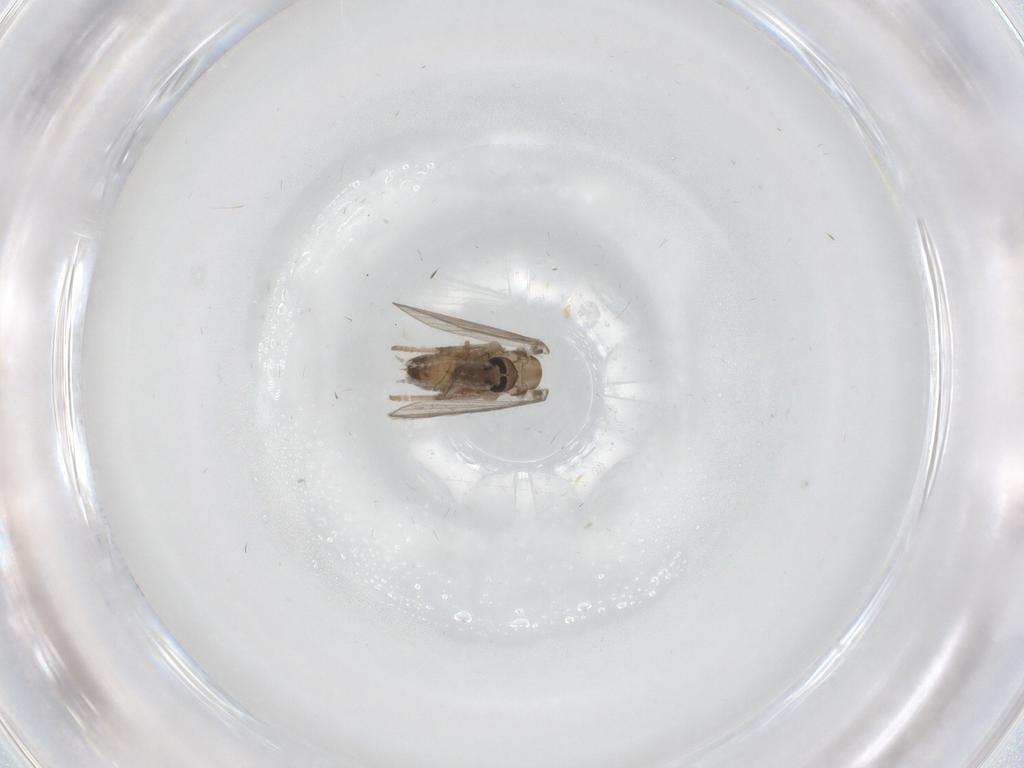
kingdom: Animalia
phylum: Arthropoda
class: Insecta
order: Diptera
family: Psychodidae
